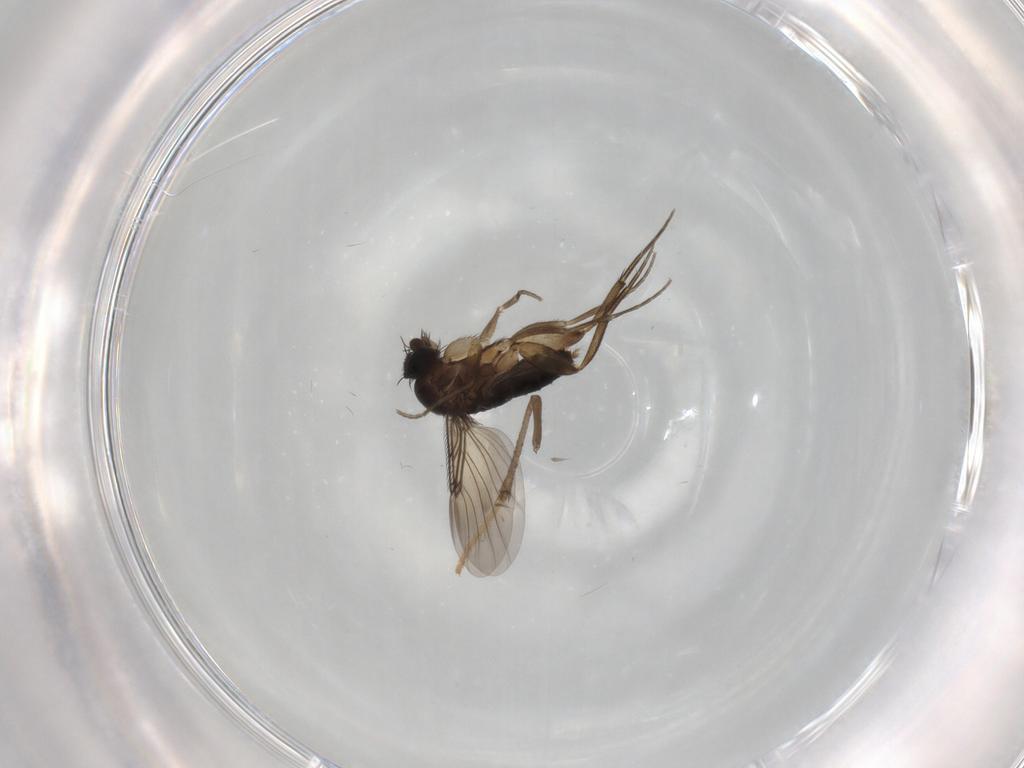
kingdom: Animalia
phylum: Arthropoda
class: Insecta
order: Diptera
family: Phoridae
